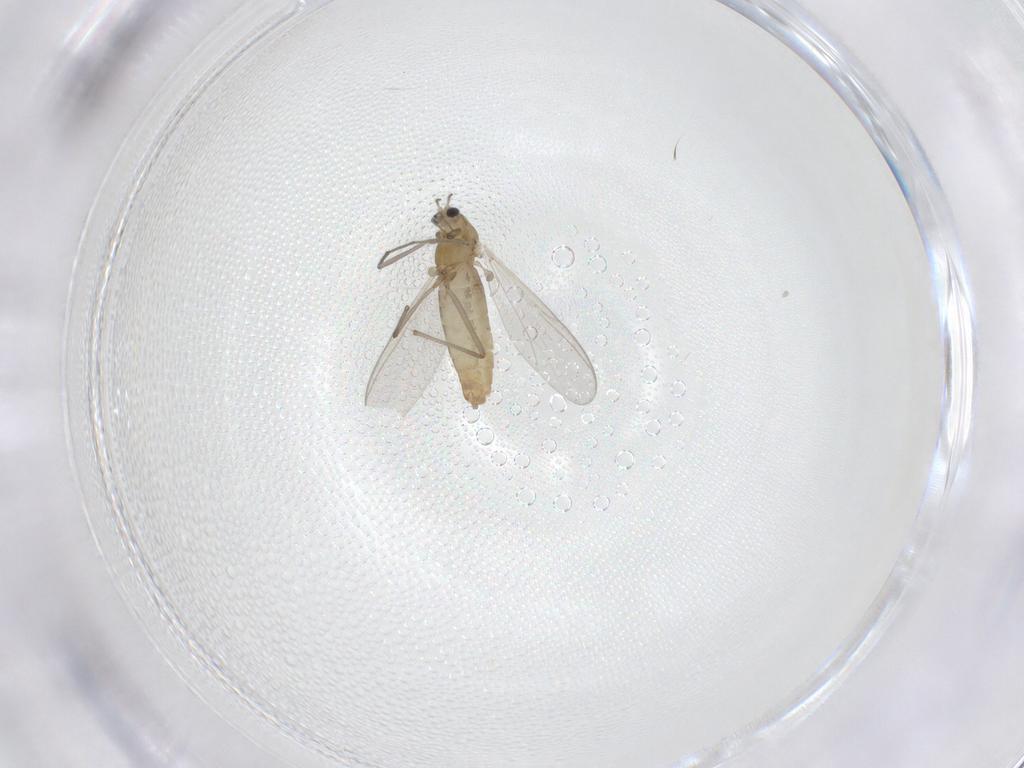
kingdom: Animalia
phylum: Arthropoda
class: Insecta
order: Diptera
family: Chironomidae
